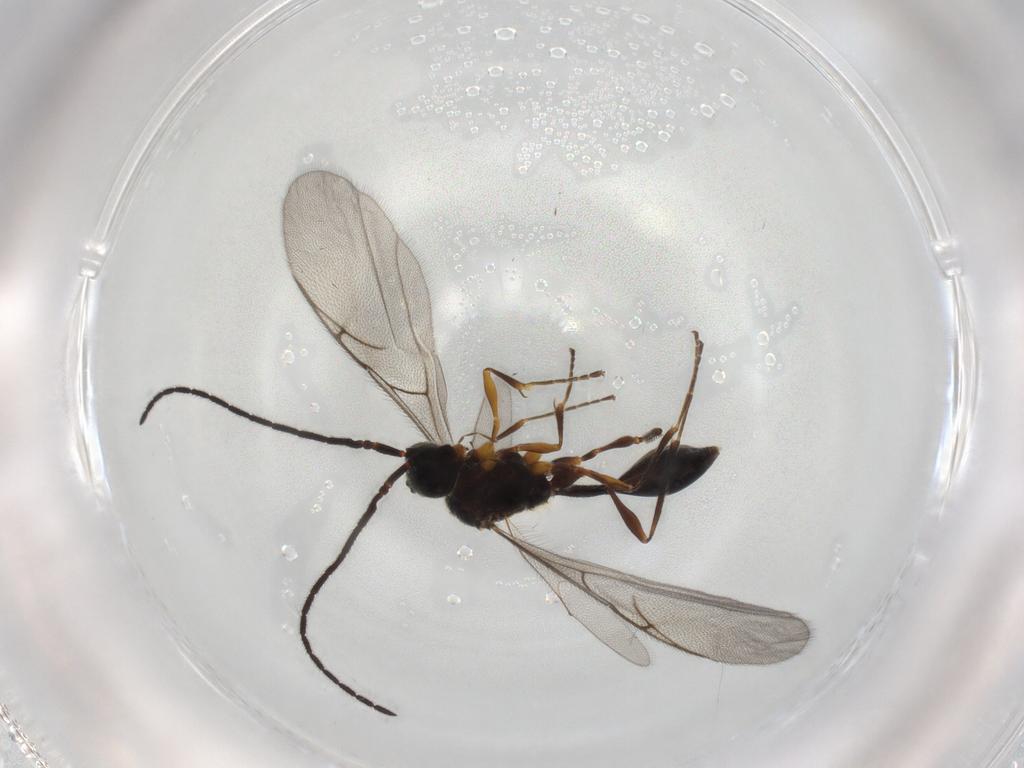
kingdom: Animalia
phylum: Arthropoda
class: Insecta
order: Hymenoptera
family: Diapriidae
